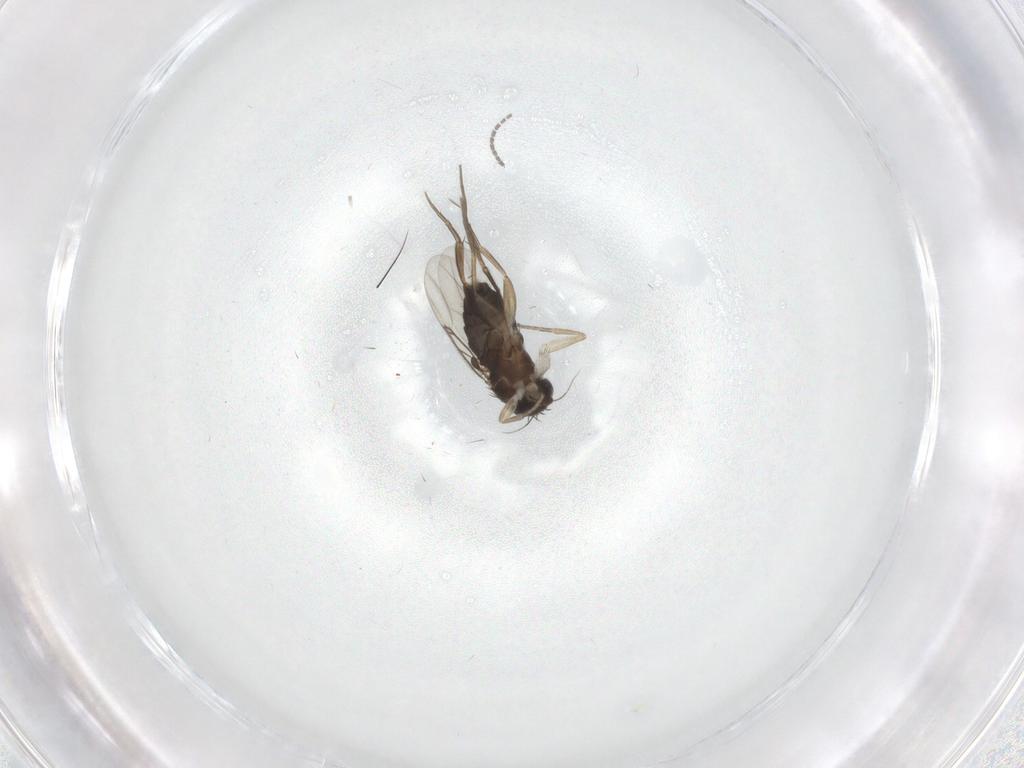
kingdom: Animalia
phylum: Arthropoda
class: Insecta
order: Diptera
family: Phoridae
